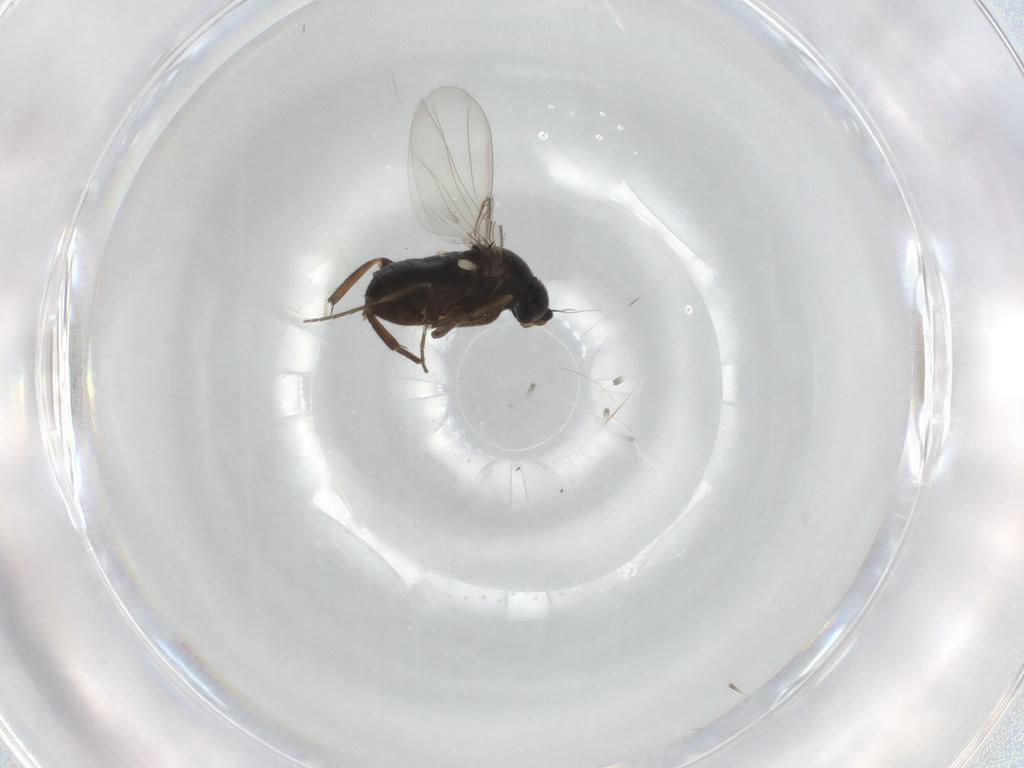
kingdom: Animalia
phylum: Arthropoda
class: Insecta
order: Diptera
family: Phoridae
